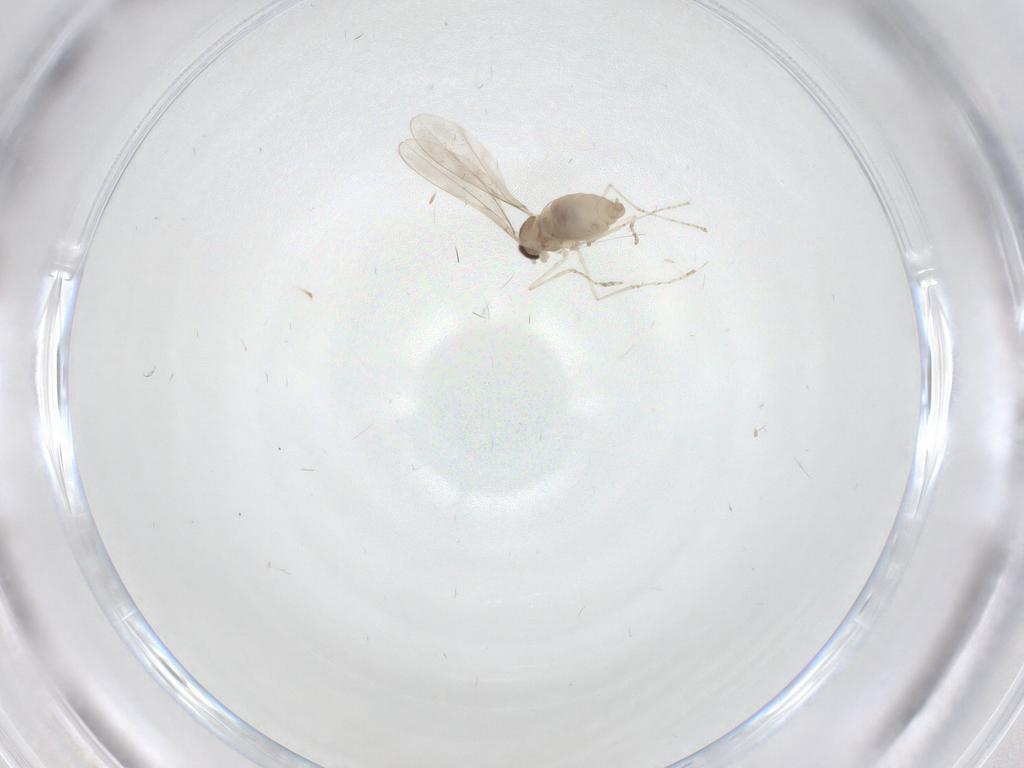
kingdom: Animalia
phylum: Arthropoda
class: Insecta
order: Diptera
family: Cecidomyiidae
